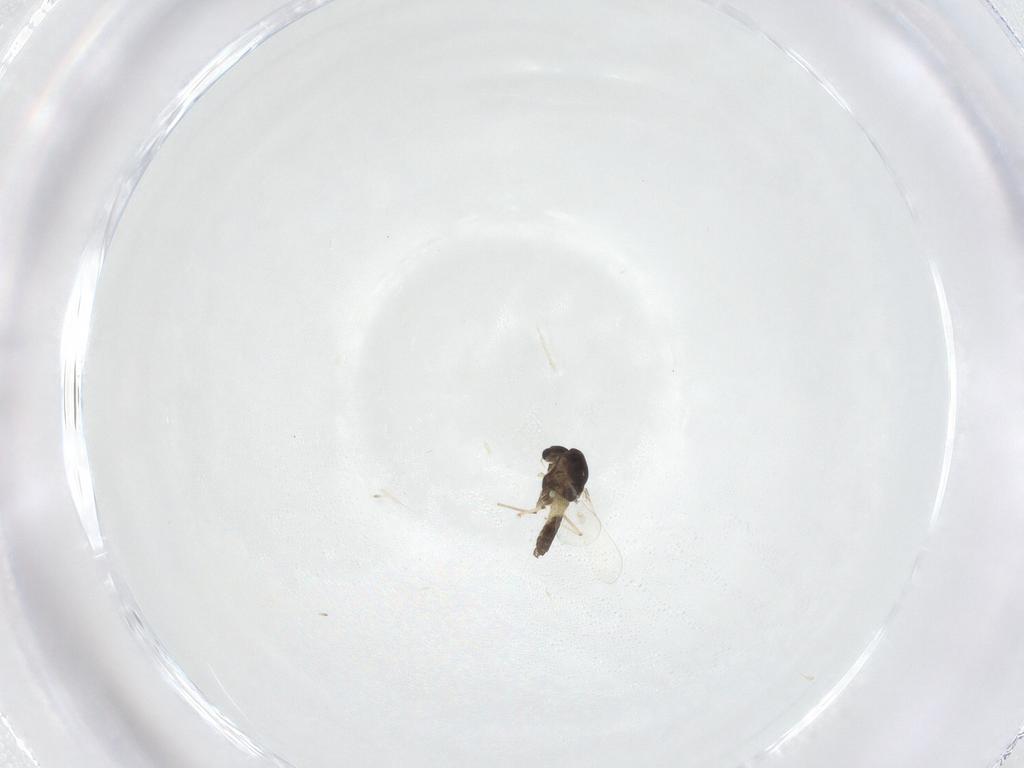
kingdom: Animalia
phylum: Arthropoda
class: Insecta
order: Diptera
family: Chironomidae
